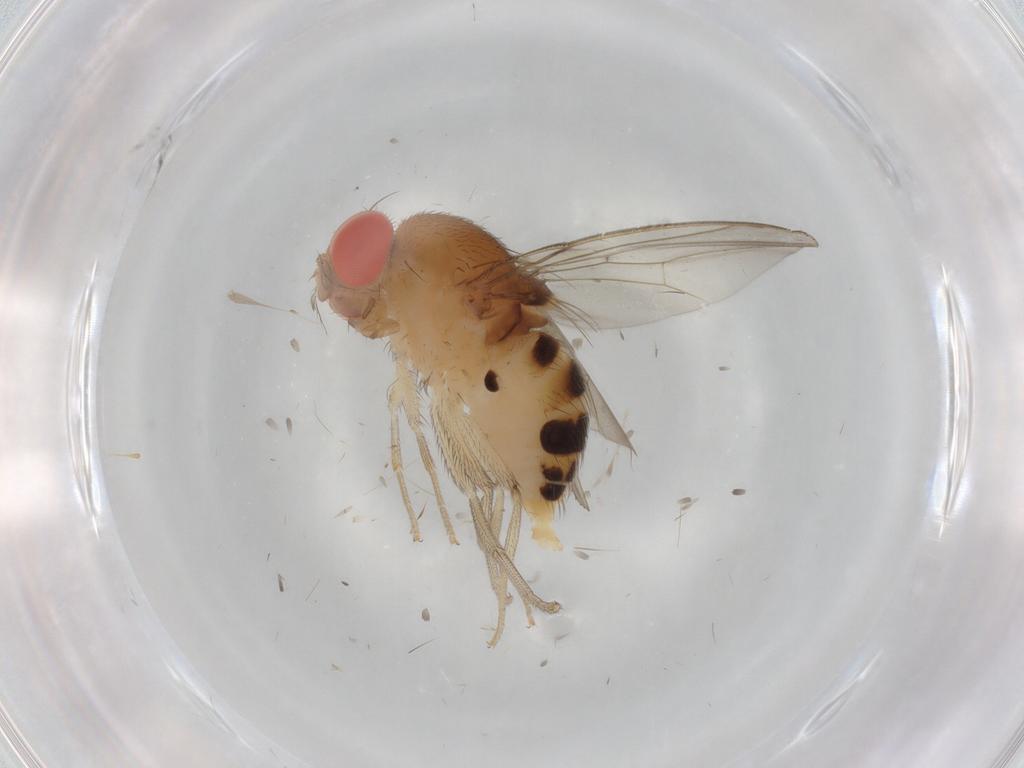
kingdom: Animalia
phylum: Arthropoda
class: Insecta
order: Diptera
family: Drosophilidae
